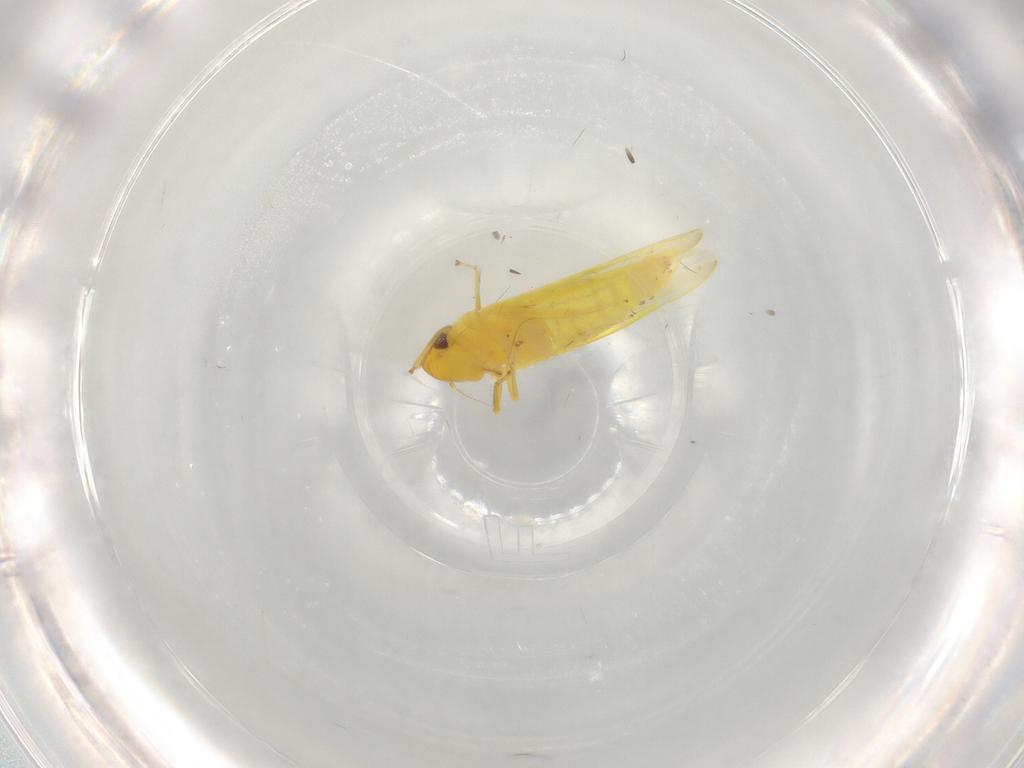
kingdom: Animalia
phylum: Arthropoda
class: Insecta
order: Hemiptera
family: Cicadellidae
